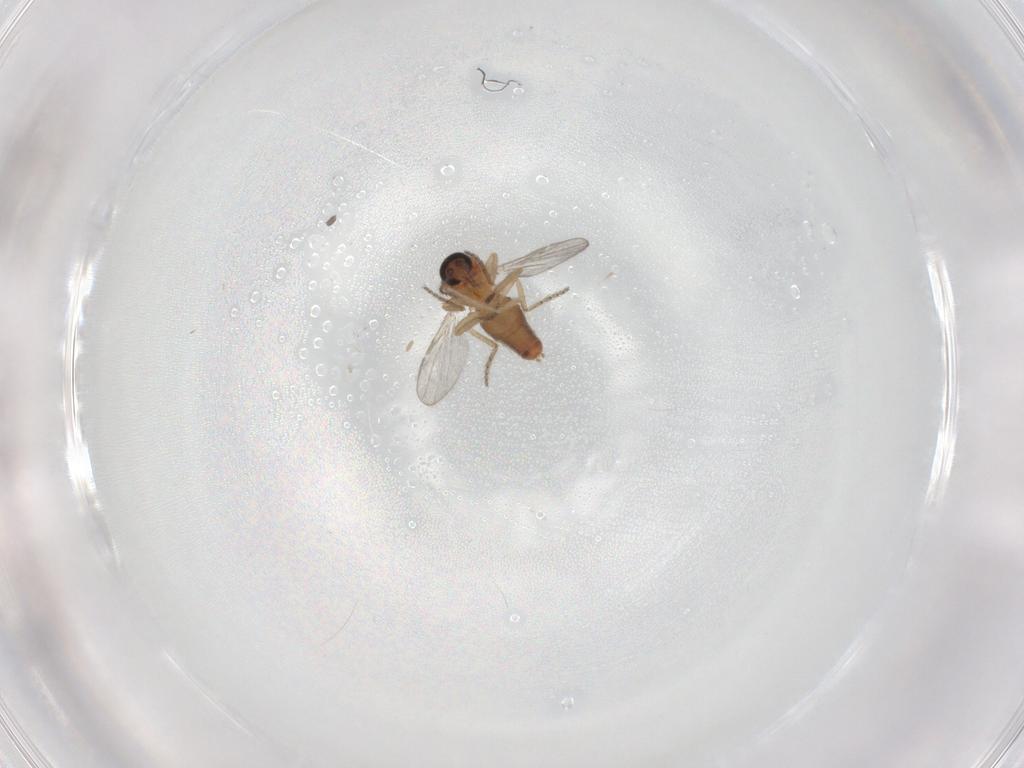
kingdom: Animalia
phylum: Arthropoda
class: Insecta
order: Diptera
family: Ceratopogonidae
